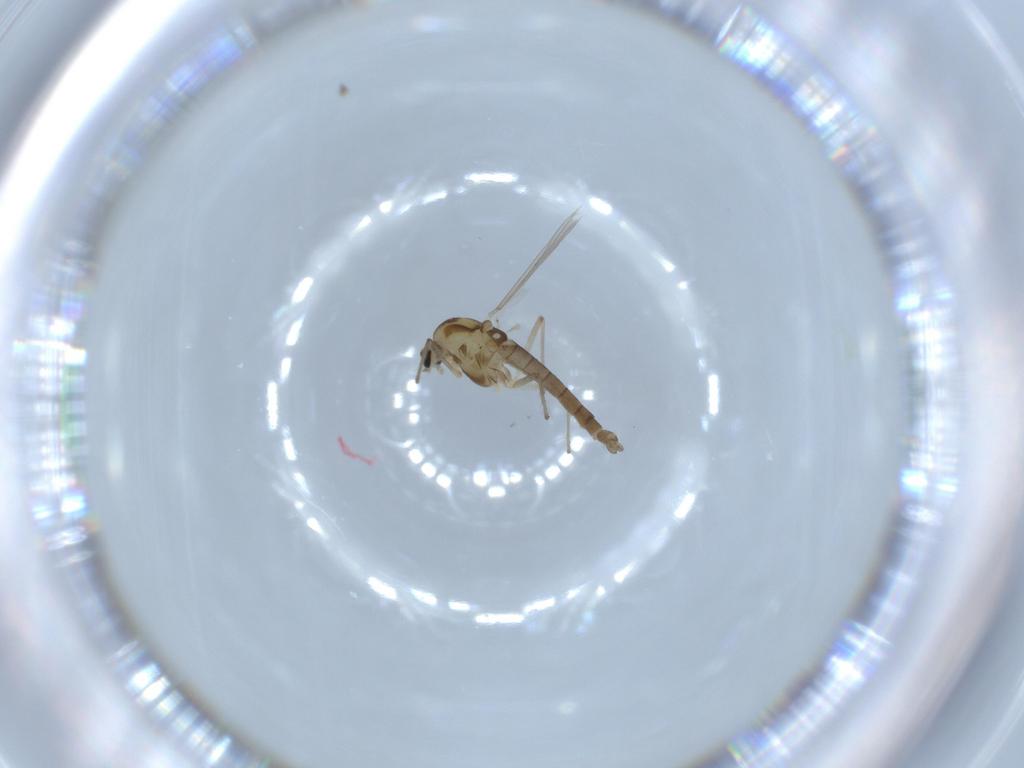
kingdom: Animalia
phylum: Arthropoda
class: Insecta
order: Diptera
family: Chironomidae
